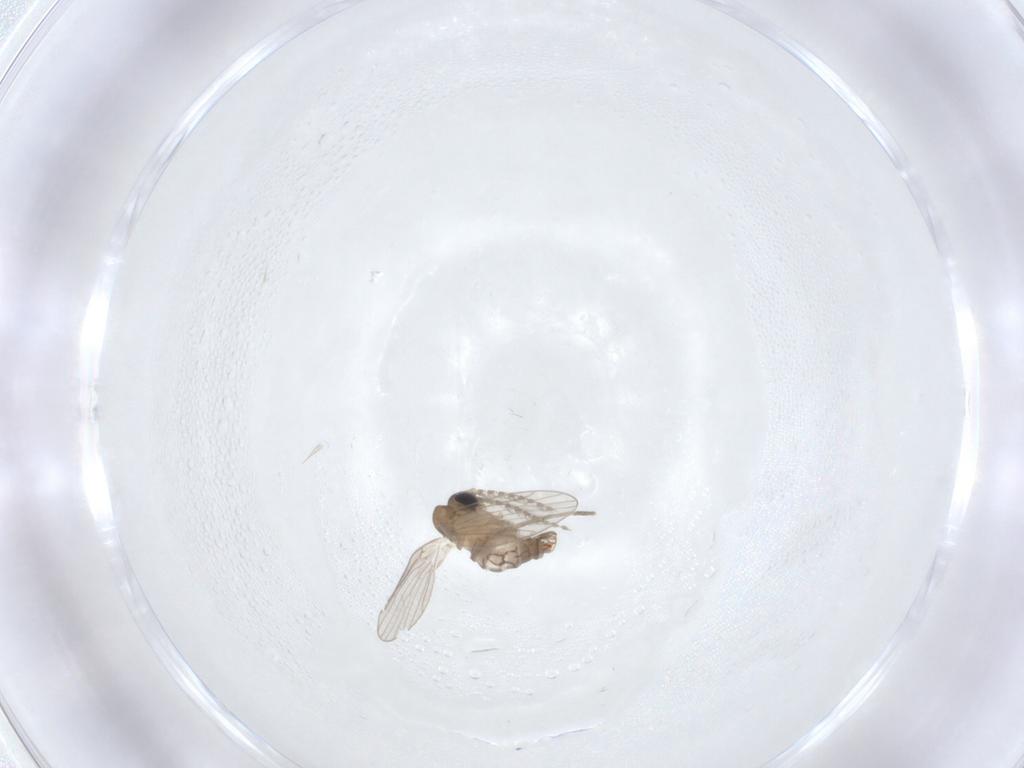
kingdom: Animalia
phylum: Arthropoda
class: Insecta
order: Diptera
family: Psychodidae
